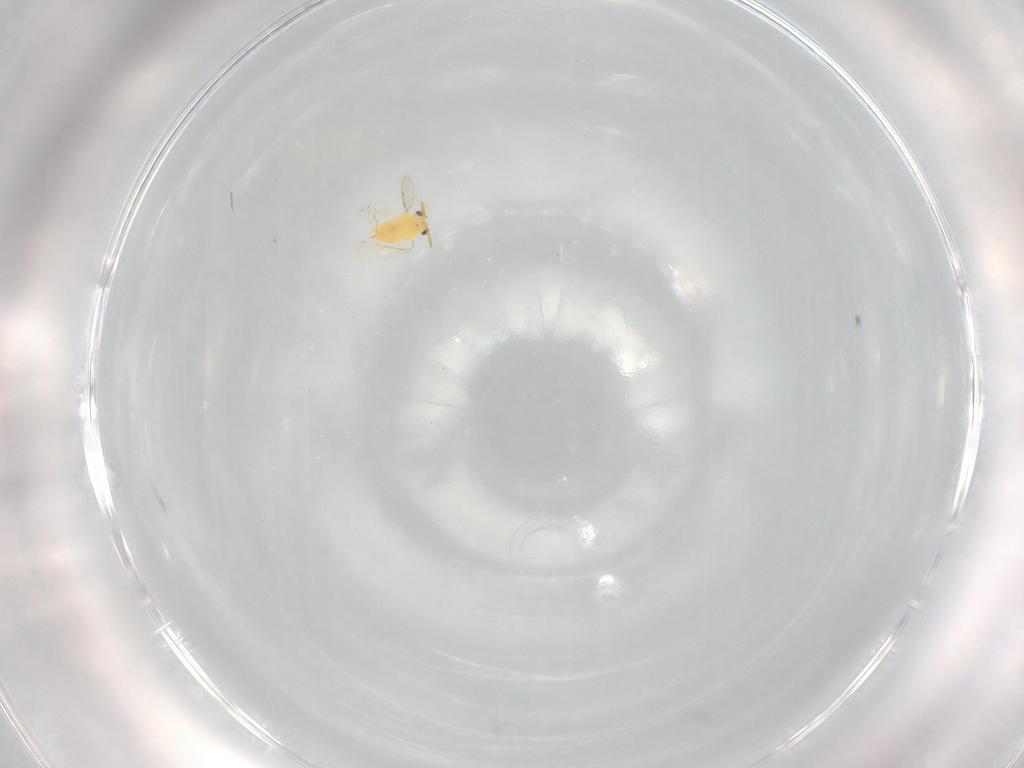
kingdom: Animalia
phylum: Arthropoda
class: Insecta
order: Hymenoptera
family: Aphelinidae
